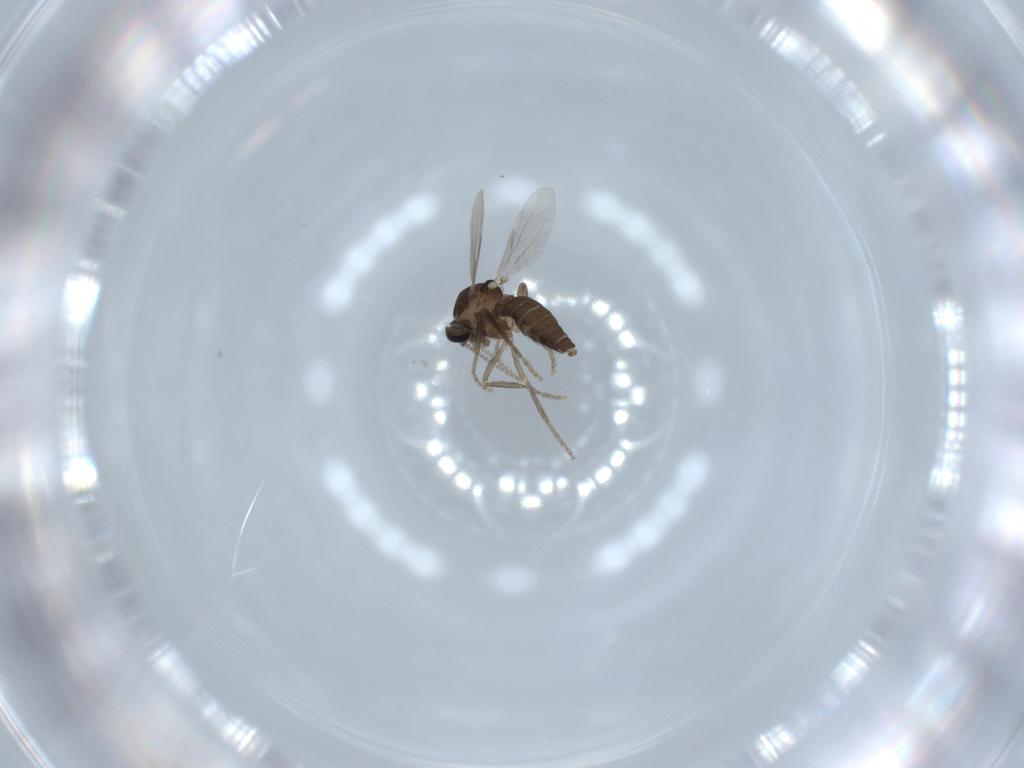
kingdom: Animalia
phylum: Arthropoda
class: Insecta
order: Diptera
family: Ceratopogonidae
